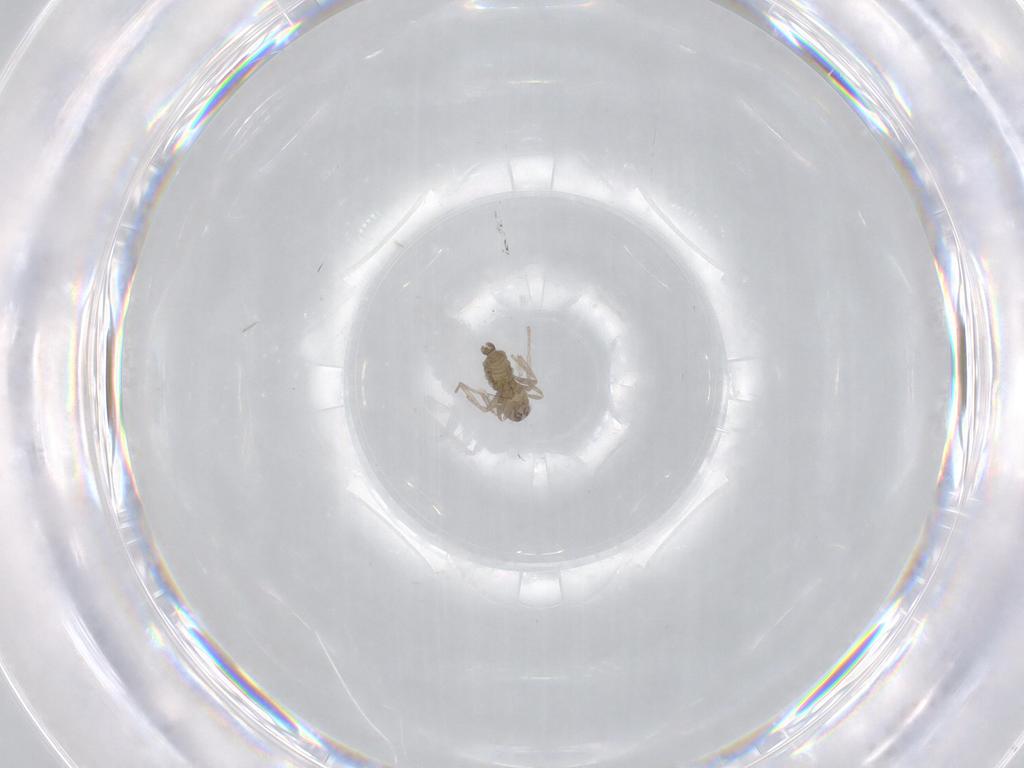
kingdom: Animalia
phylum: Arthropoda
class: Insecta
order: Diptera
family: Cecidomyiidae
